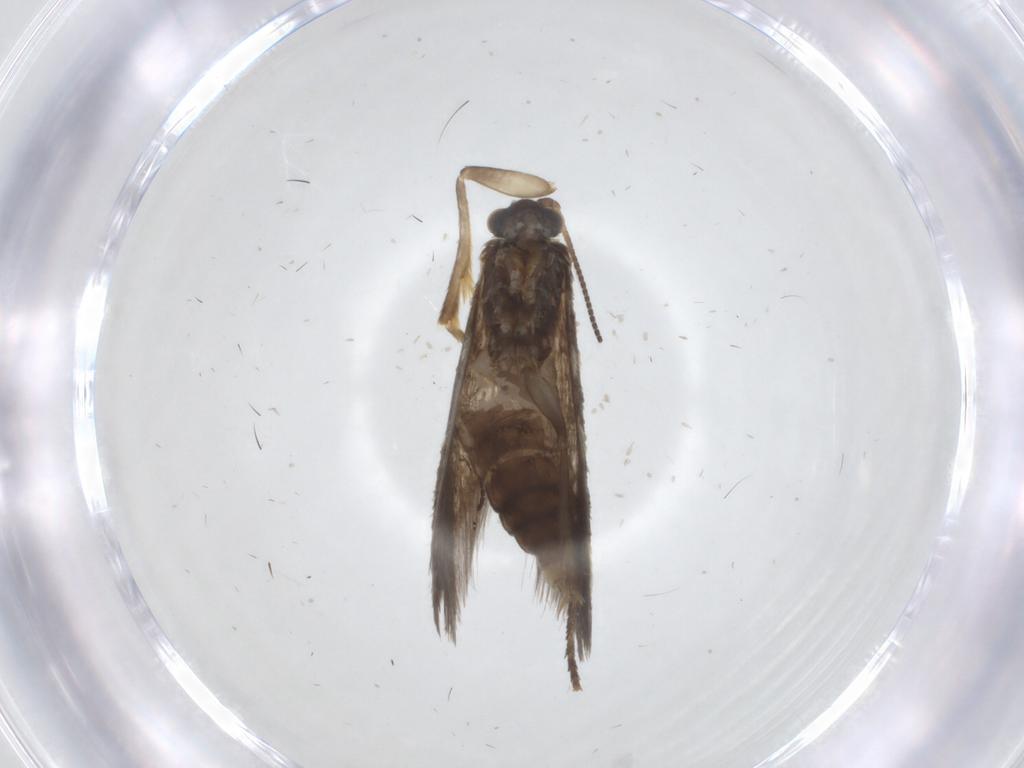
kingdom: Animalia
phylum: Arthropoda
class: Insecta
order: Lepidoptera
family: Micropterigidae
